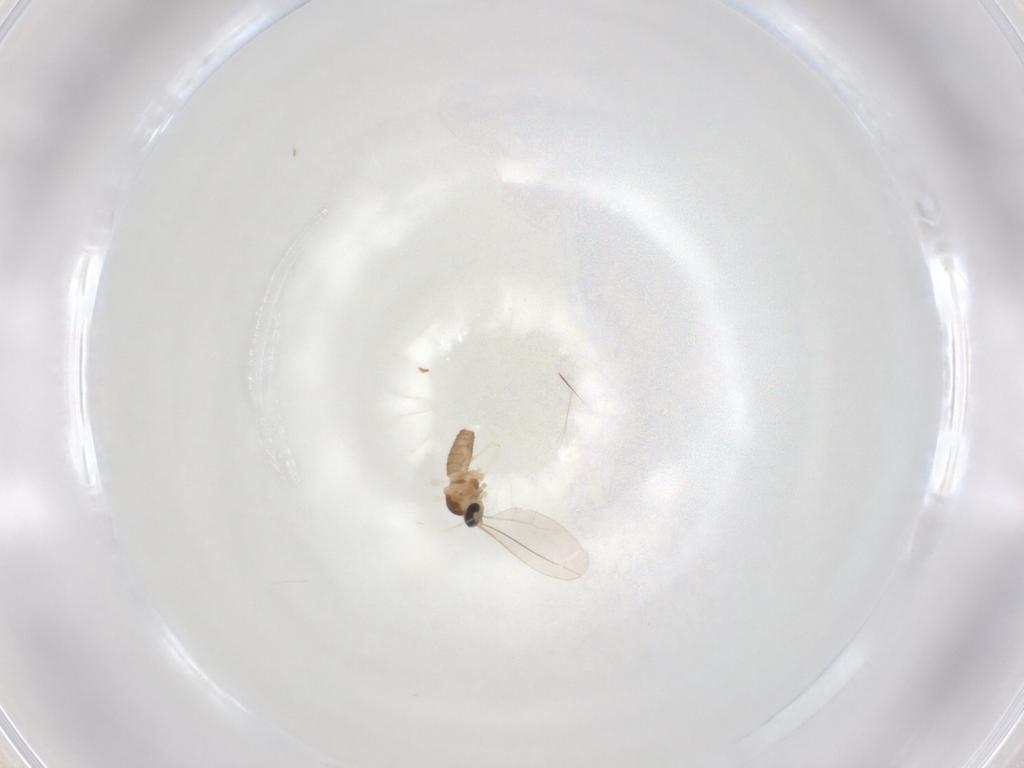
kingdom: Animalia
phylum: Arthropoda
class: Insecta
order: Diptera
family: Cecidomyiidae
